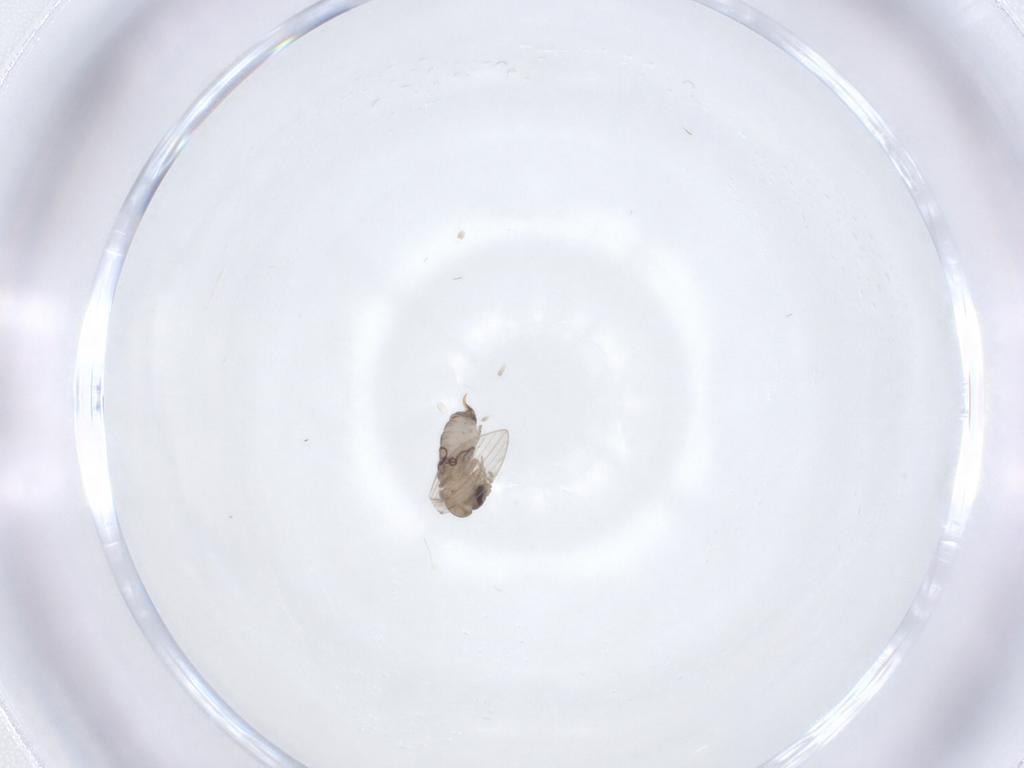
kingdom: Animalia
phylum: Arthropoda
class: Insecta
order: Diptera
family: Psychodidae
